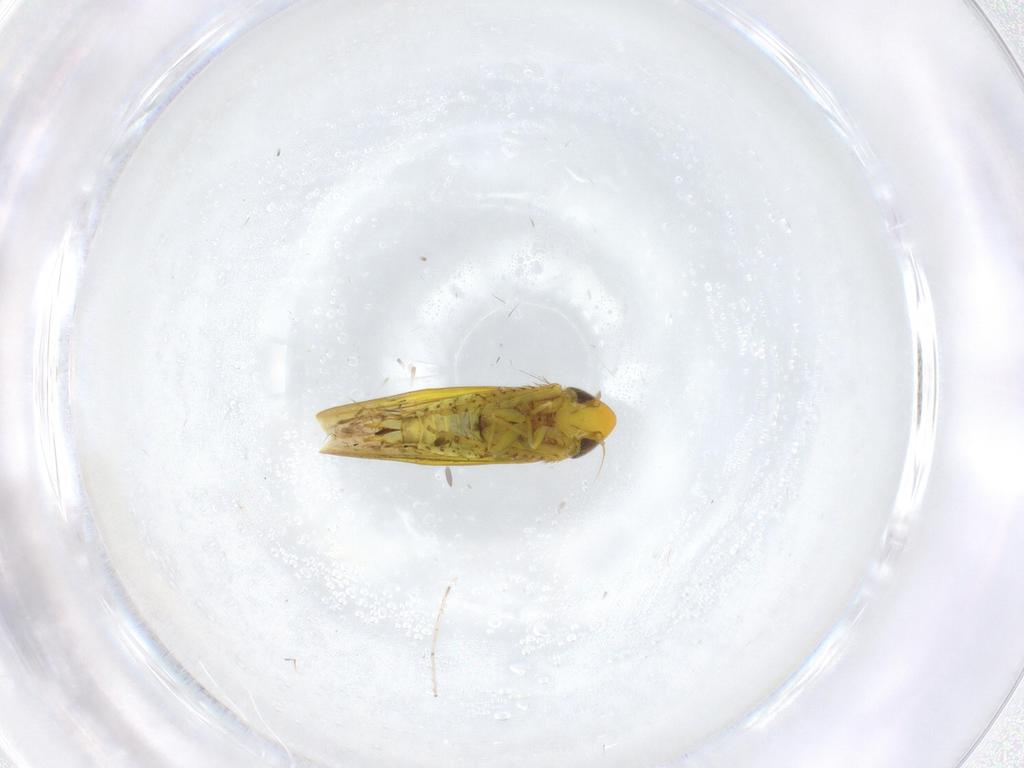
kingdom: Animalia
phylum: Arthropoda
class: Insecta
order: Hemiptera
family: Cicadellidae
